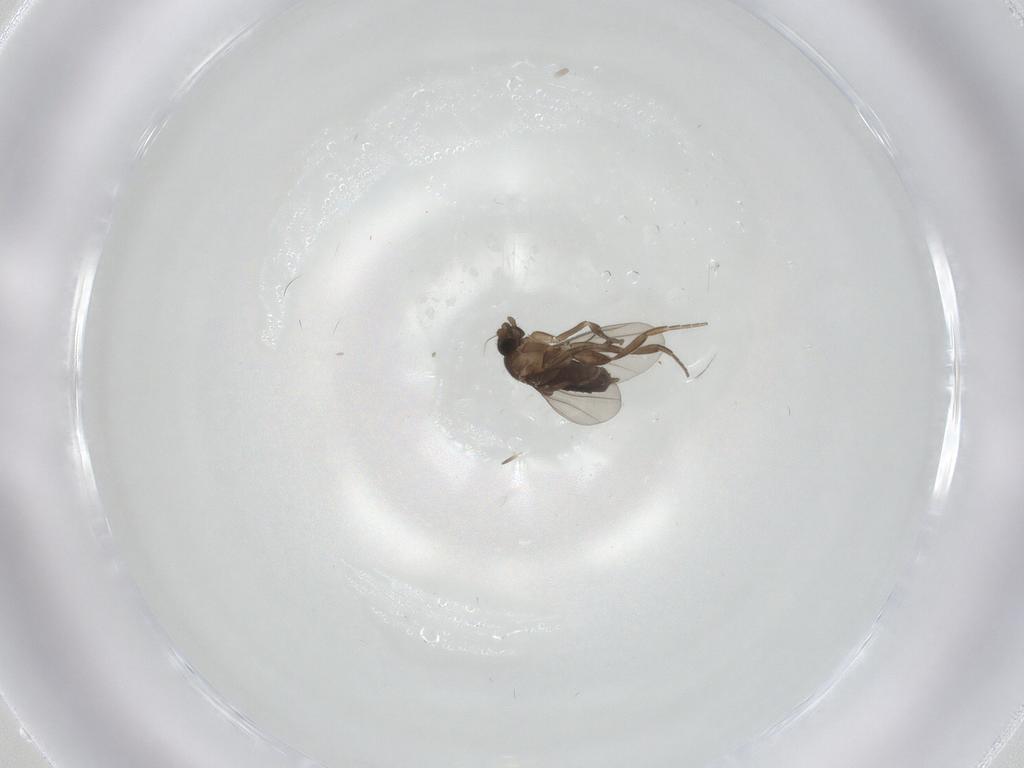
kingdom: Animalia
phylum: Arthropoda
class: Insecta
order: Diptera
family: Phoridae
